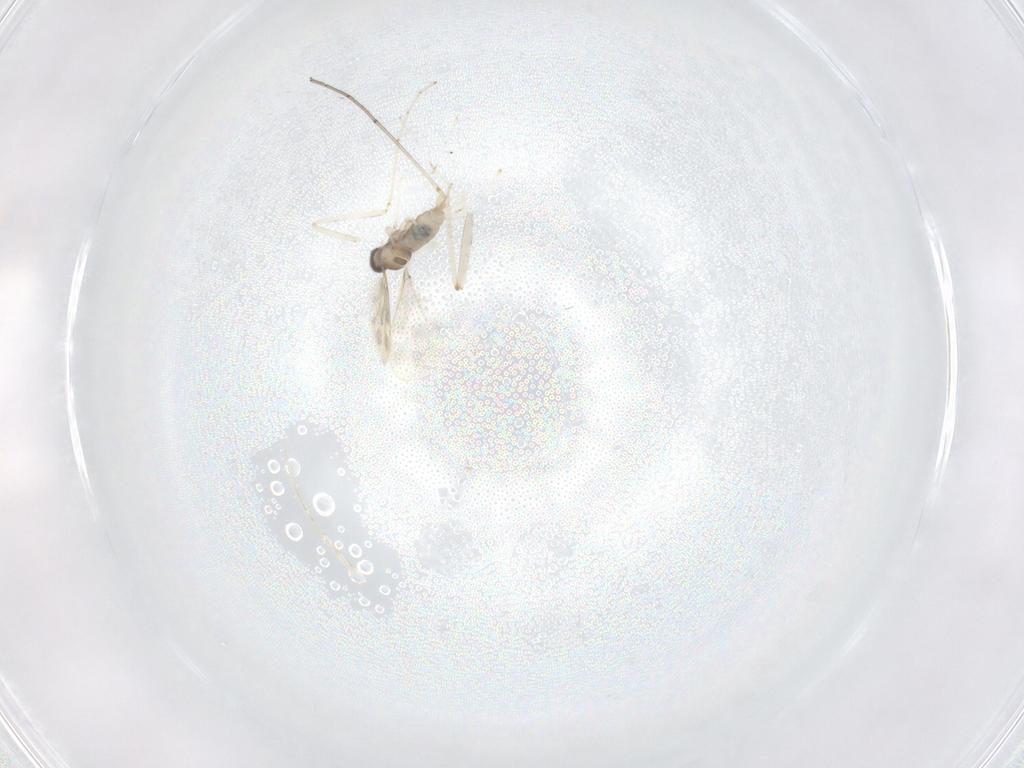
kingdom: Animalia
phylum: Arthropoda
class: Insecta
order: Diptera
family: Cecidomyiidae
